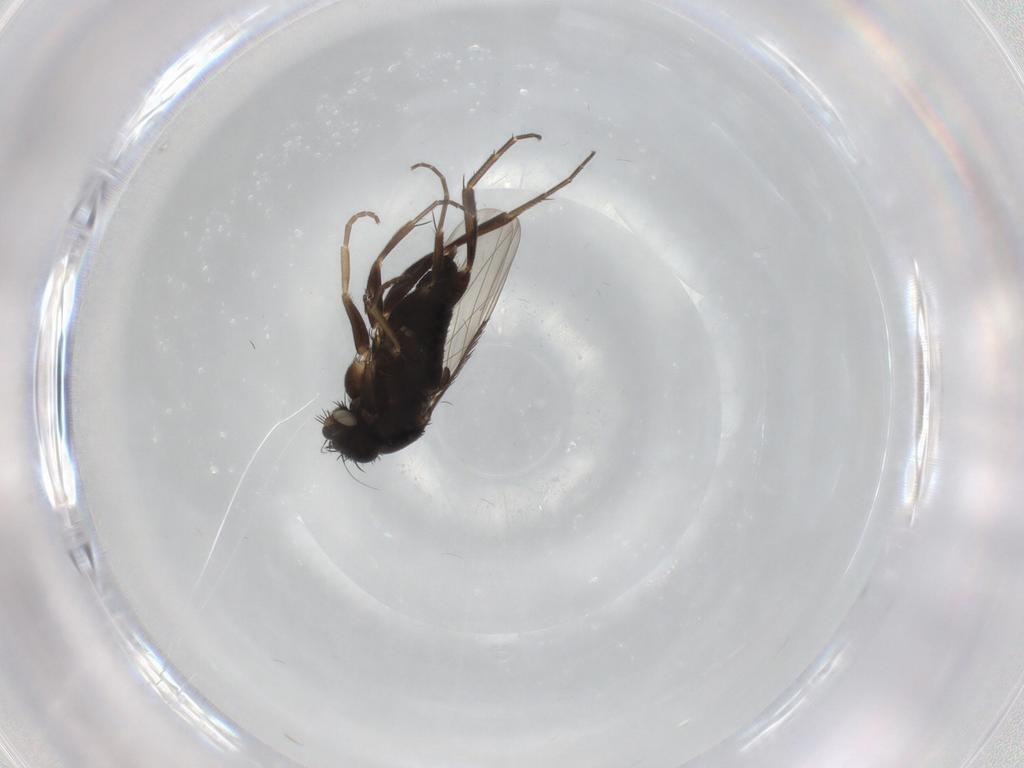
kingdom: Animalia
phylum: Arthropoda
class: Insecta
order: Diptera
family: Phoridae
